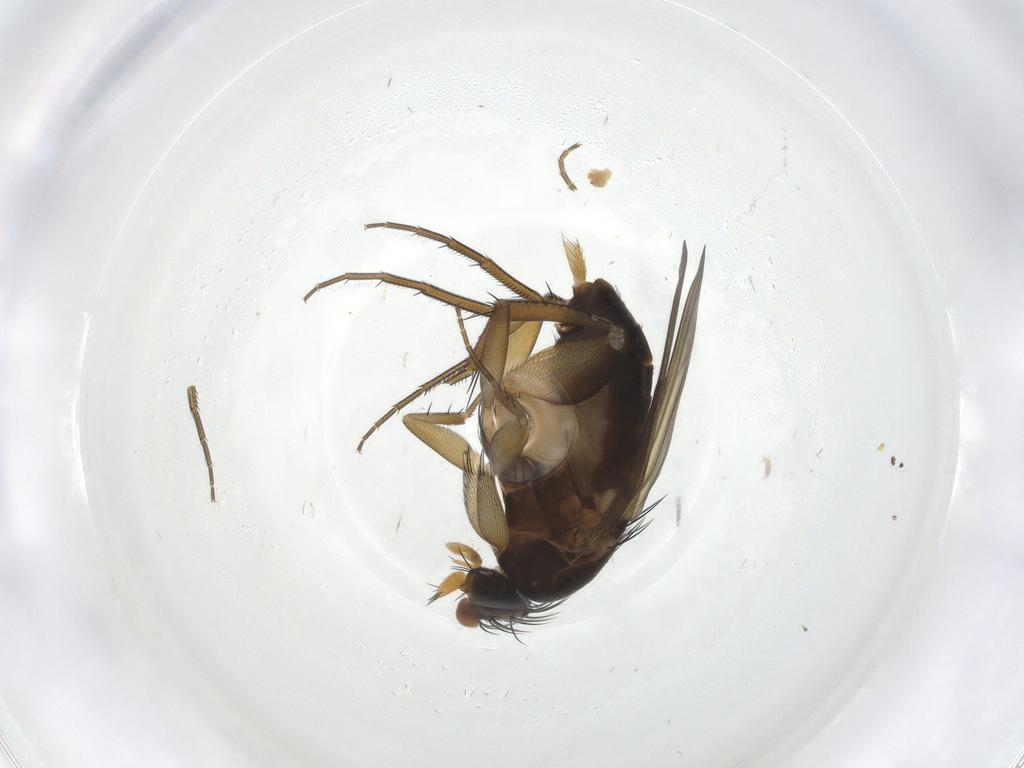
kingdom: Animalia
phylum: Arthropoda
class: Insecta
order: Diptera
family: Phoridae
